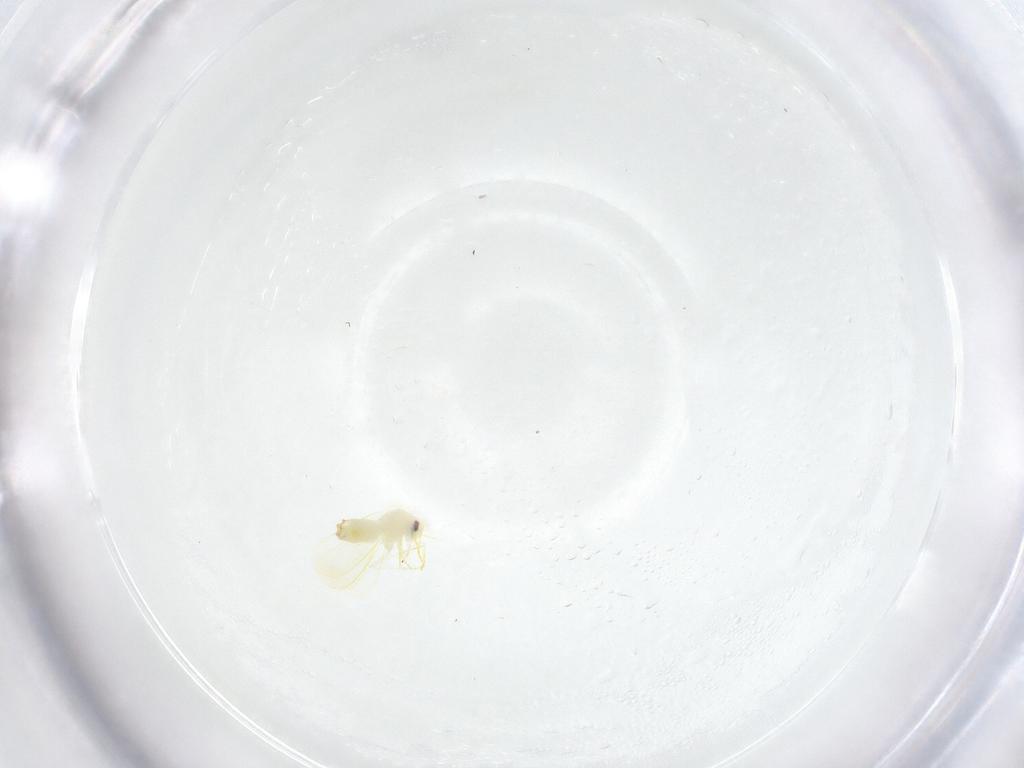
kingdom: Animalia
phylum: Arthropoda
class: Insecta
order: Hemiptera
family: Aleyrodidae
